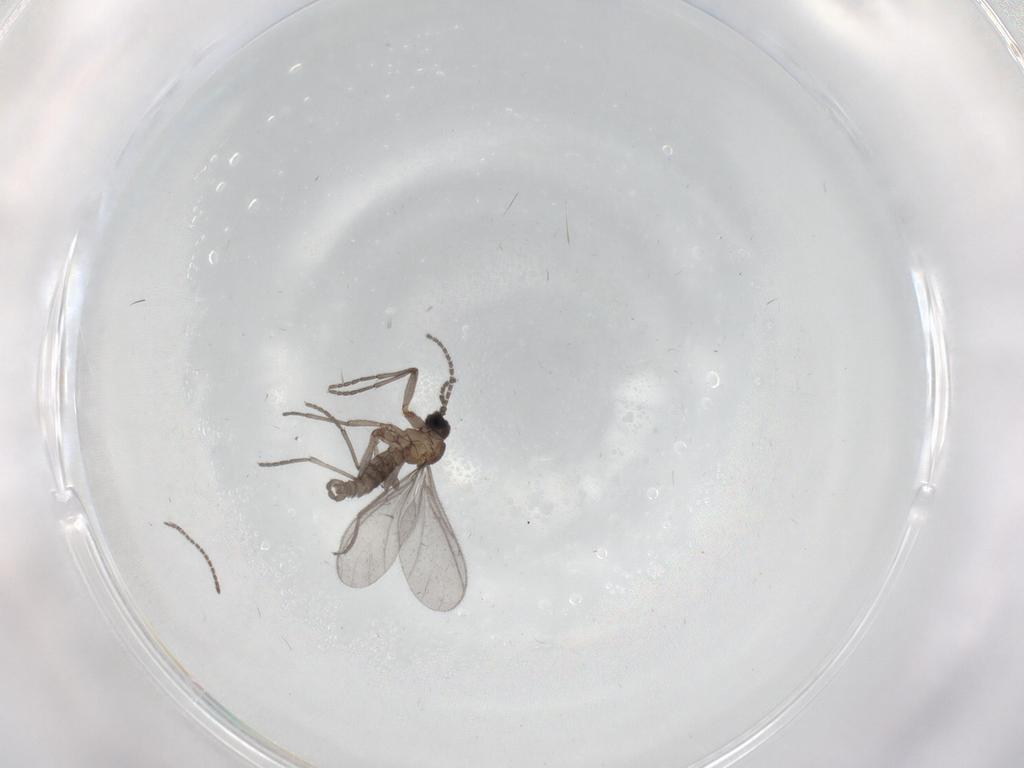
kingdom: Animalia
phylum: Arthropoda
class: Insecta
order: Diptera
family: Sciaridae
